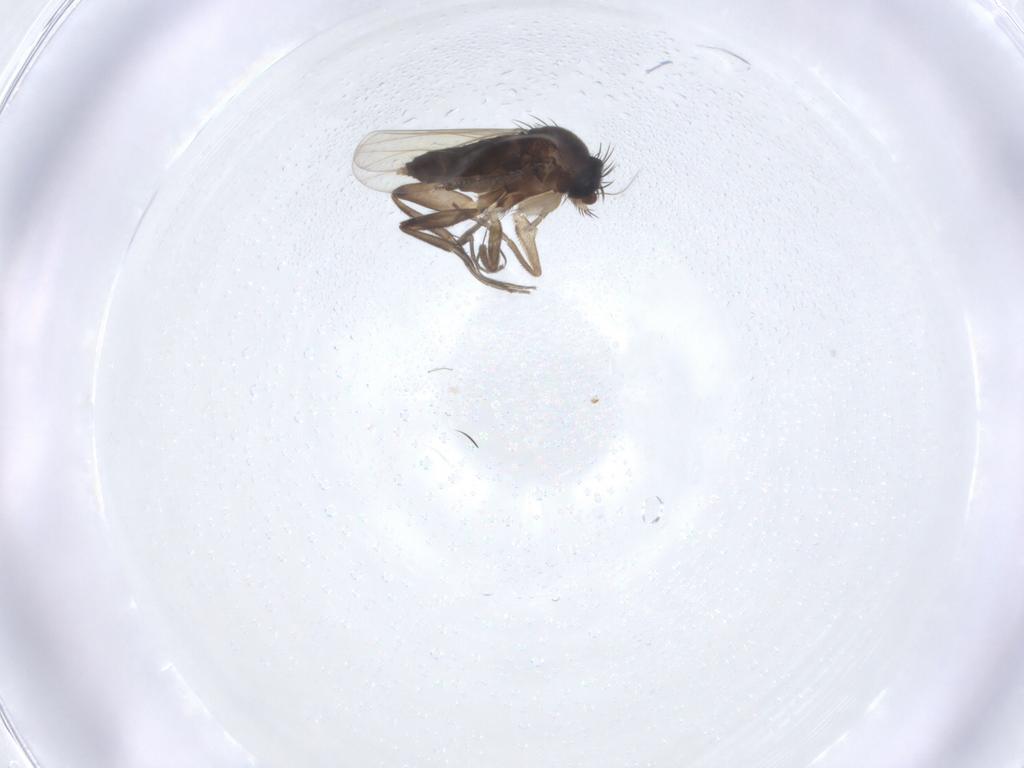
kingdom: Animalia
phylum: Arthropoda
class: Insecta
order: Diptera
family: Phoridae
